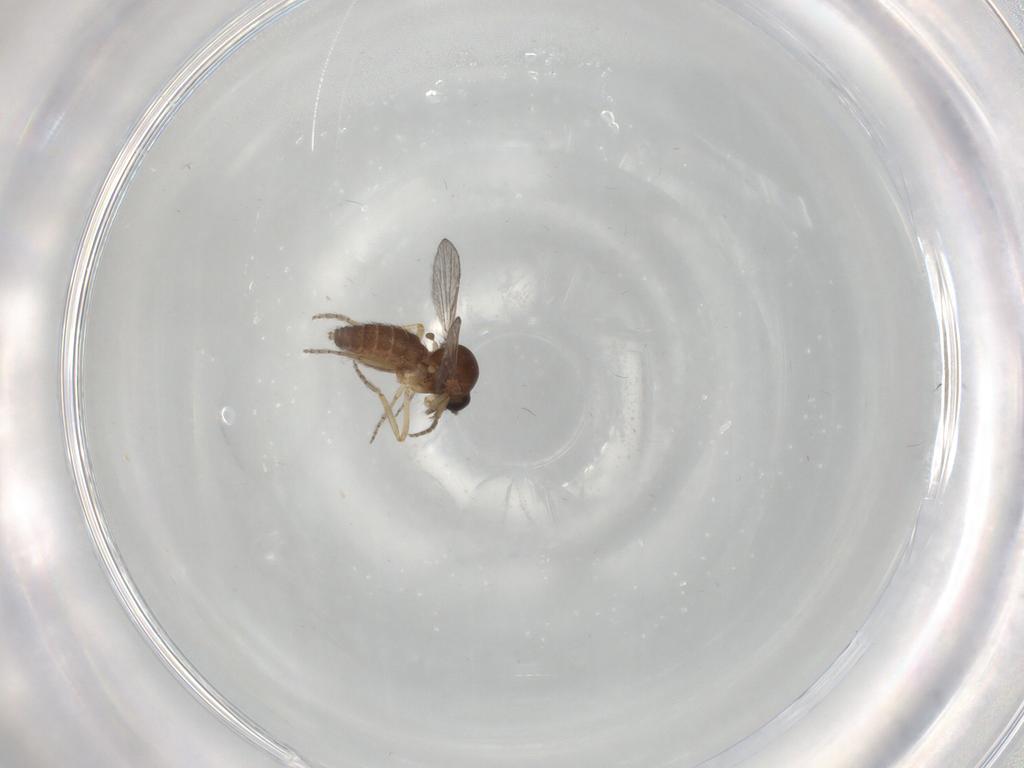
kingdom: Animalia
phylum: Arthropoda
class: Insecta
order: Diptera
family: Ceratopogonidae
